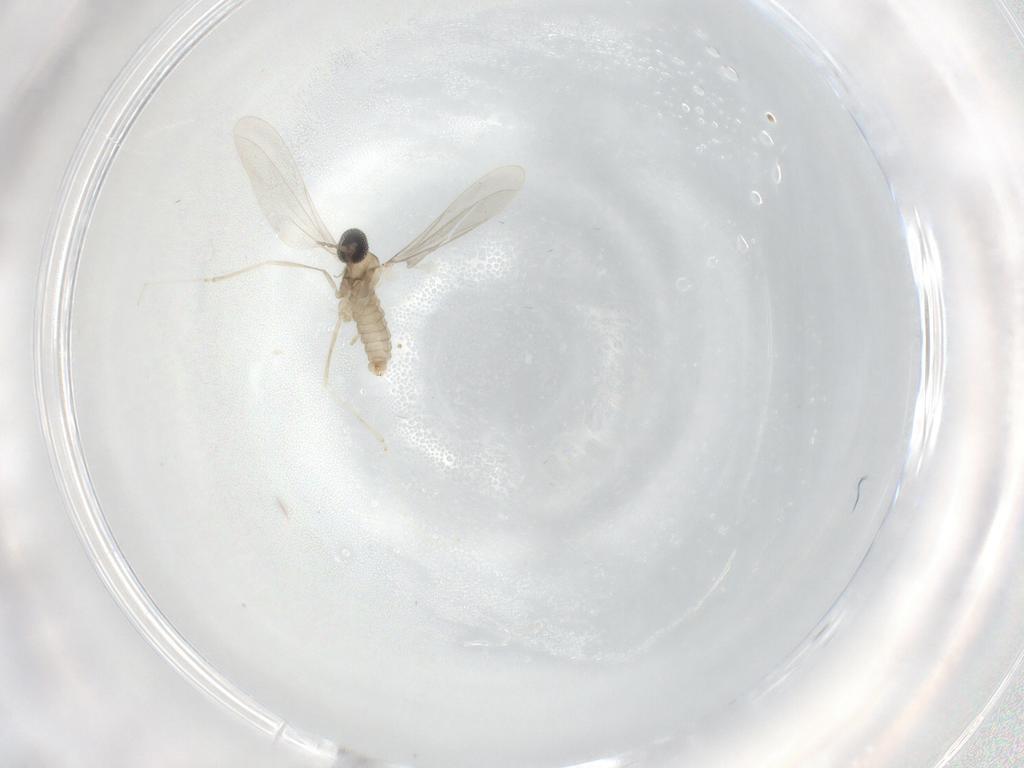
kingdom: Animalia
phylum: Arthropoda
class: Insecta
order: Diptera
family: Cecidomyiidae
